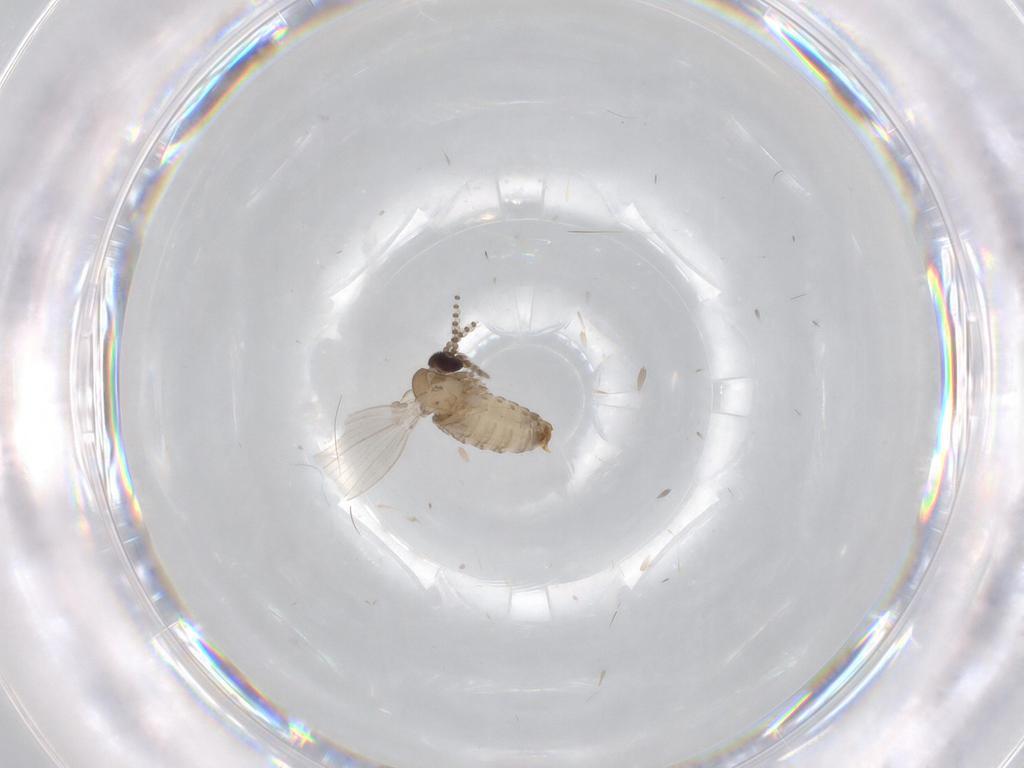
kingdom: Animalia
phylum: Arthropoda
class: Insecta
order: Diptera
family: Psychodidae
